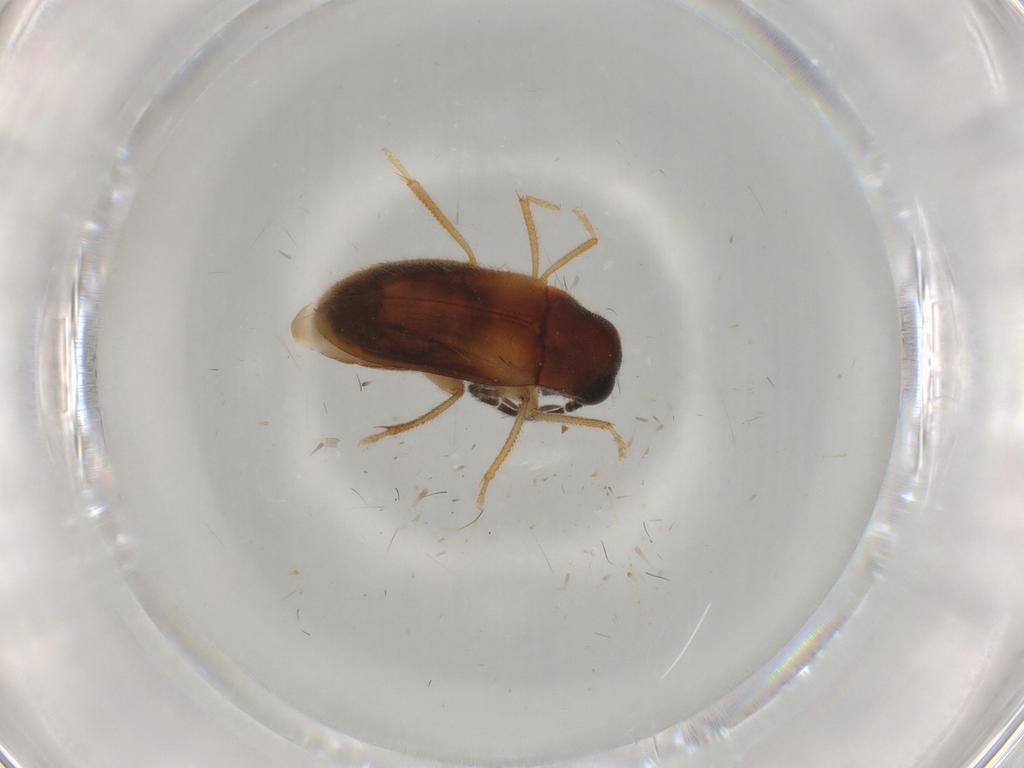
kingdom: Animalia
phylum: Arthropoda
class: Insecta
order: Coleoptera
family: Ptilodactylidae
